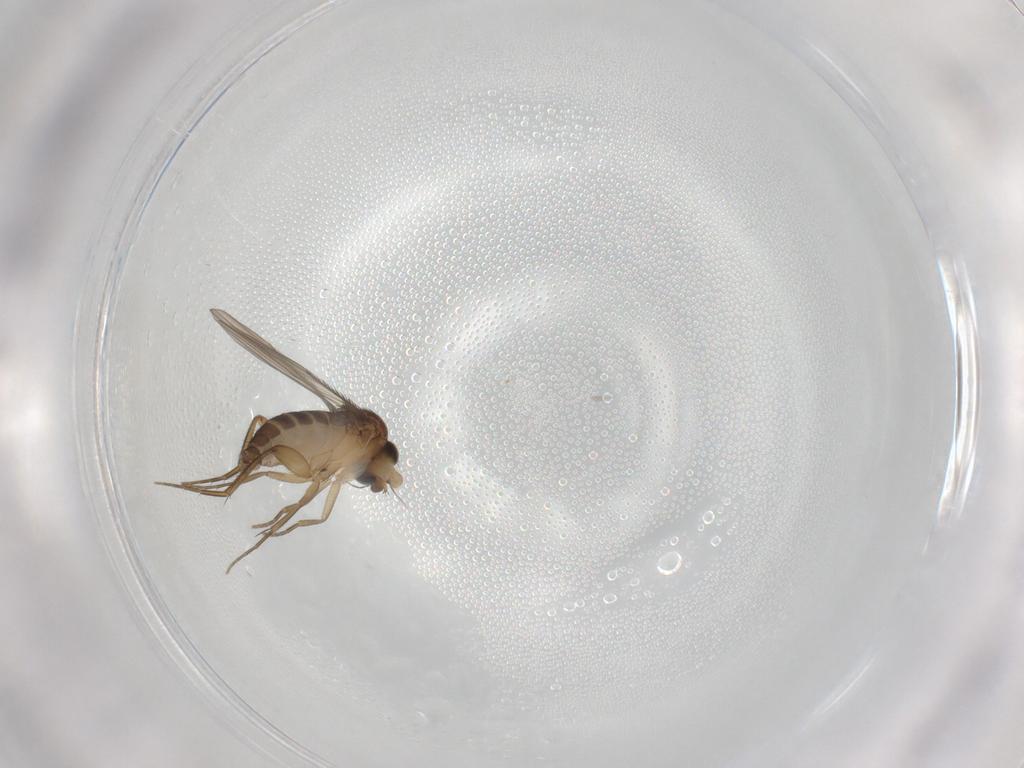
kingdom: Animalia
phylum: Arthropoda
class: Insecta
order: Diptera
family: Phoridae
